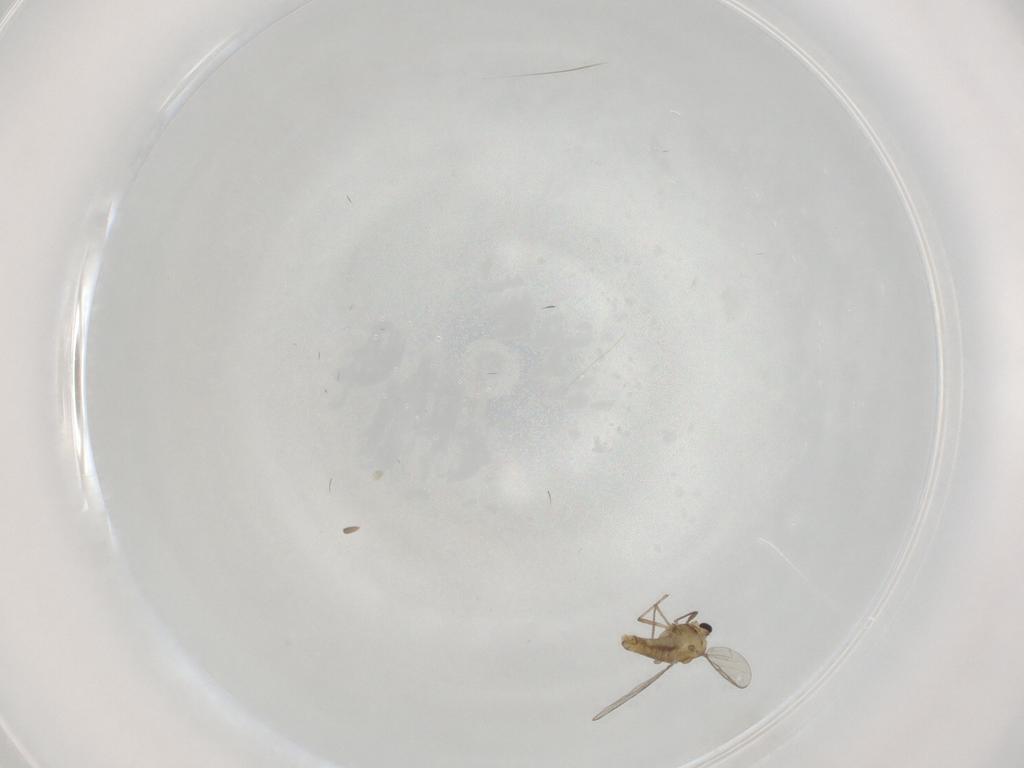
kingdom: Animalia
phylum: Arthropoda
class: Insecta
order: Diptera
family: Chironomidae
